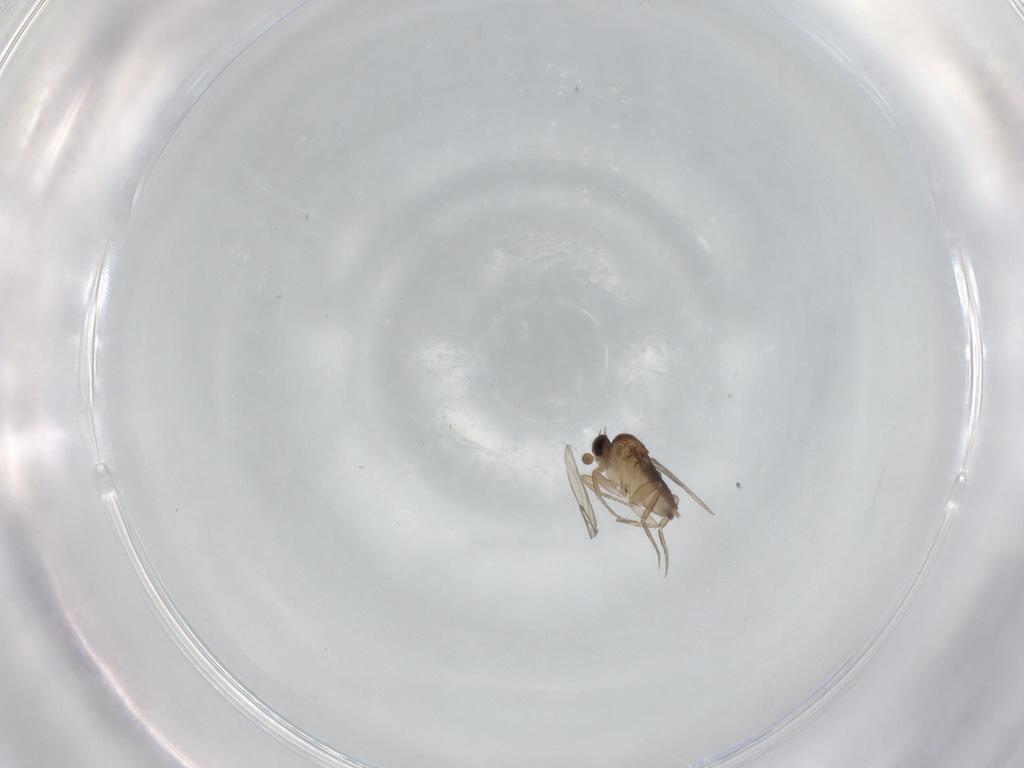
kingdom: Animalia
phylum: Arthropoda
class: Insecta
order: Diptera
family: Phoridae
